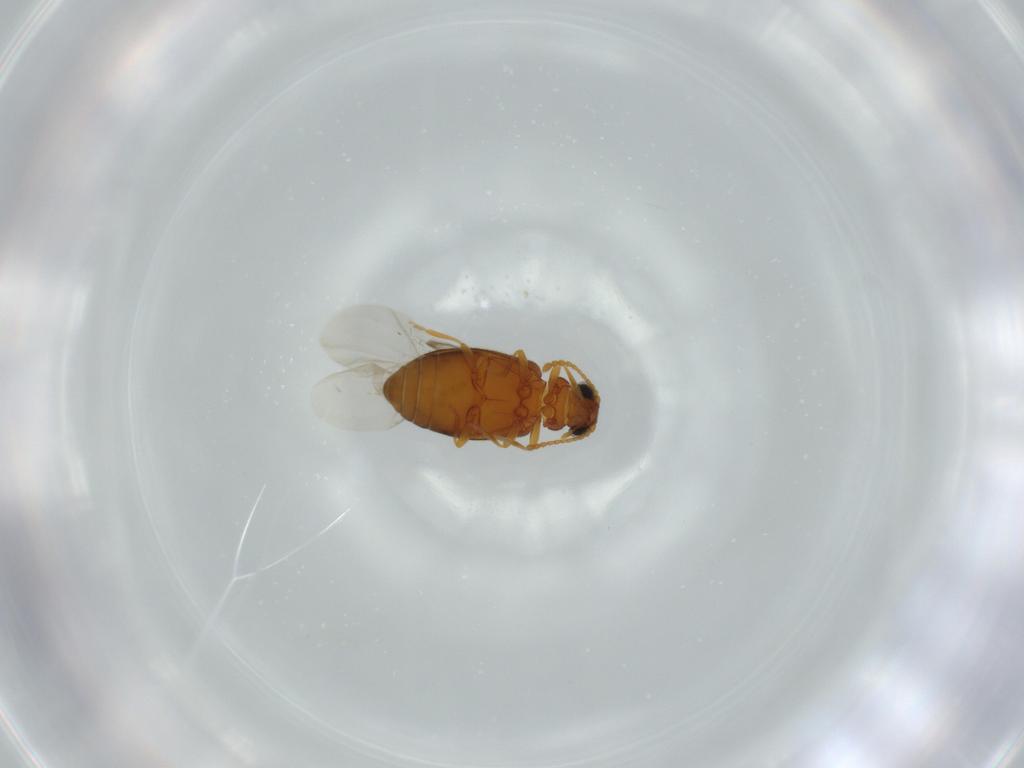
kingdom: Animalia
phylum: Arthropoda
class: Insecta
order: Coleoptera
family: Aderidae
